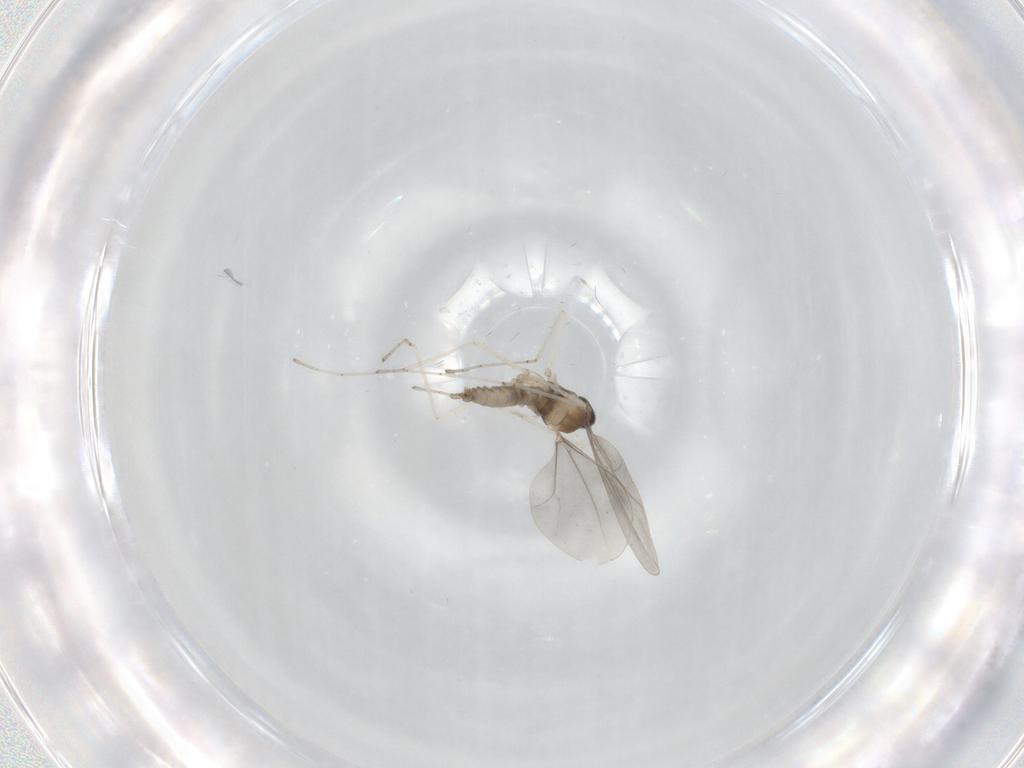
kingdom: Animalia
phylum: Arthropoda
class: Insecta
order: Diptera
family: Cecidomyiidae
